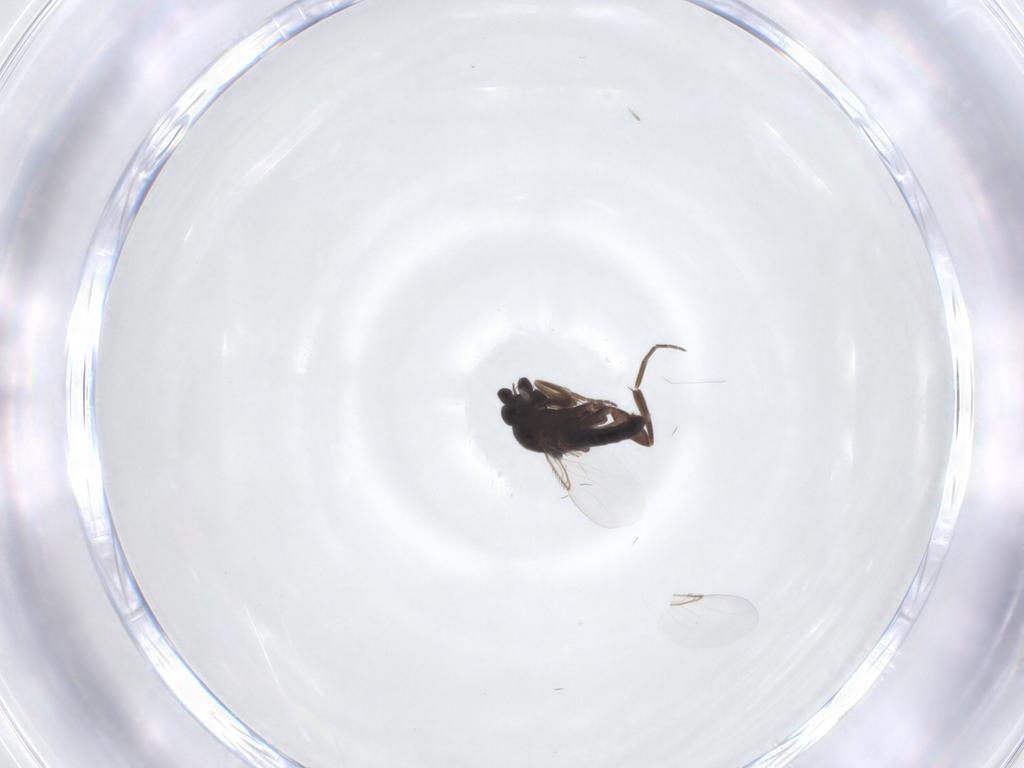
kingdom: Animalia
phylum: Arthropoda
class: Insecta
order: Diptera
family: Phoridae
